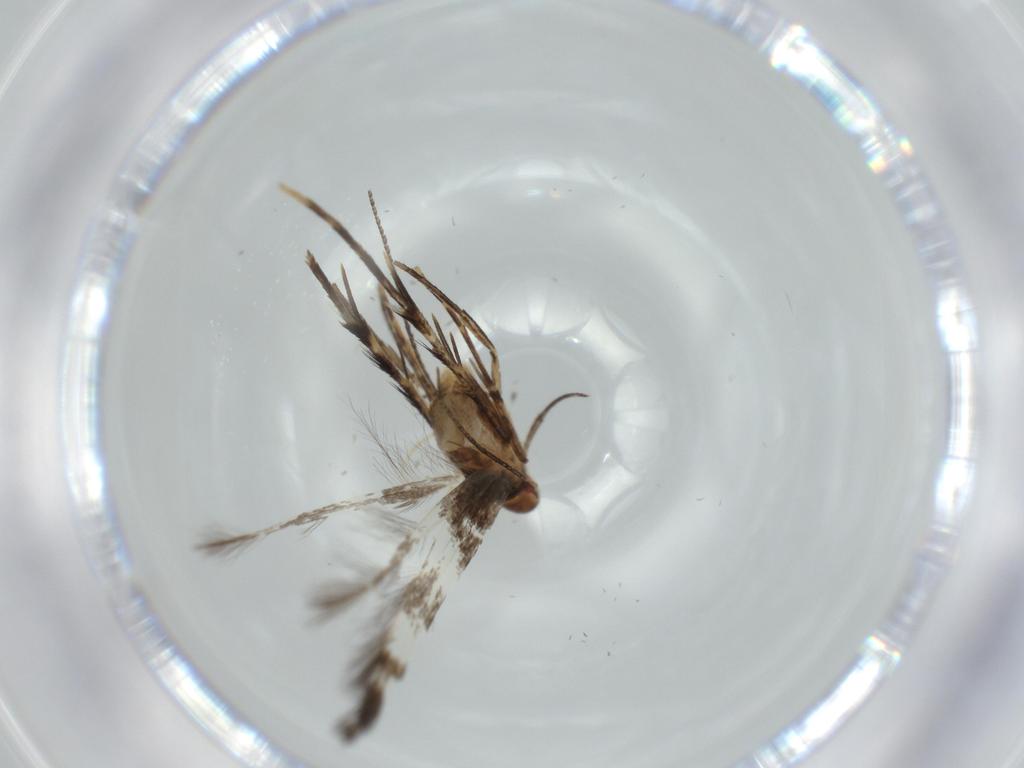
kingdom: Animalia
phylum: Arthropoda
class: Insecta
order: Lepidoptera
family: Cosmopterigidae
